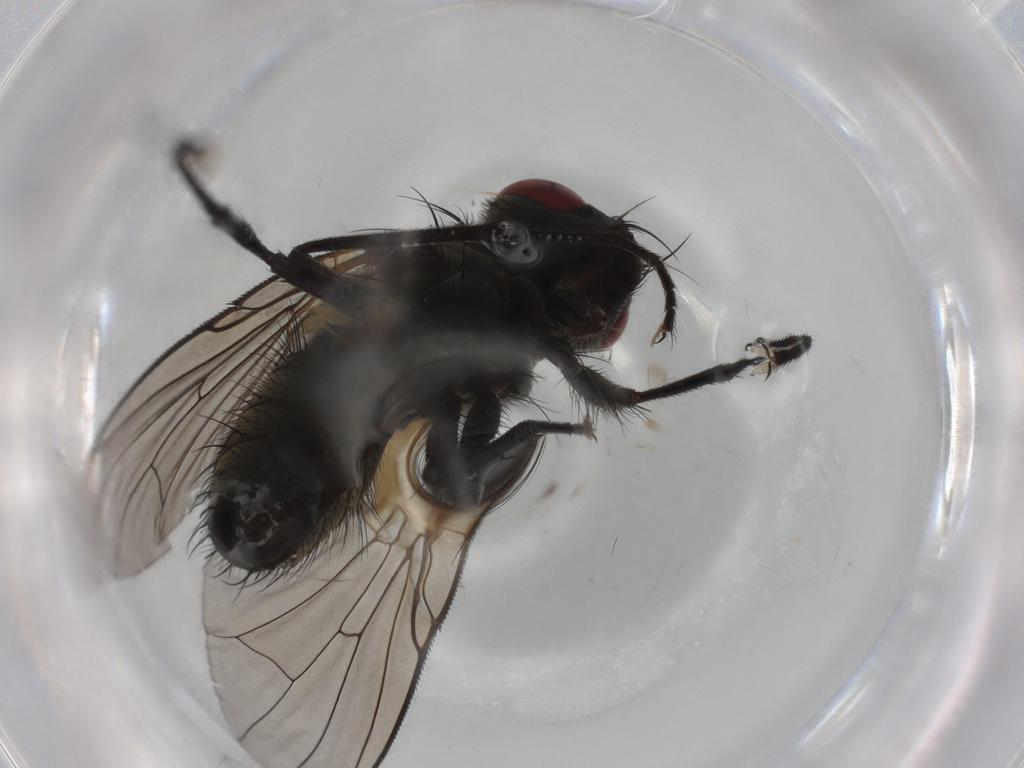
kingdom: Animalia
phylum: Arthropoda
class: Insecta
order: Diptera
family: Muscidae
